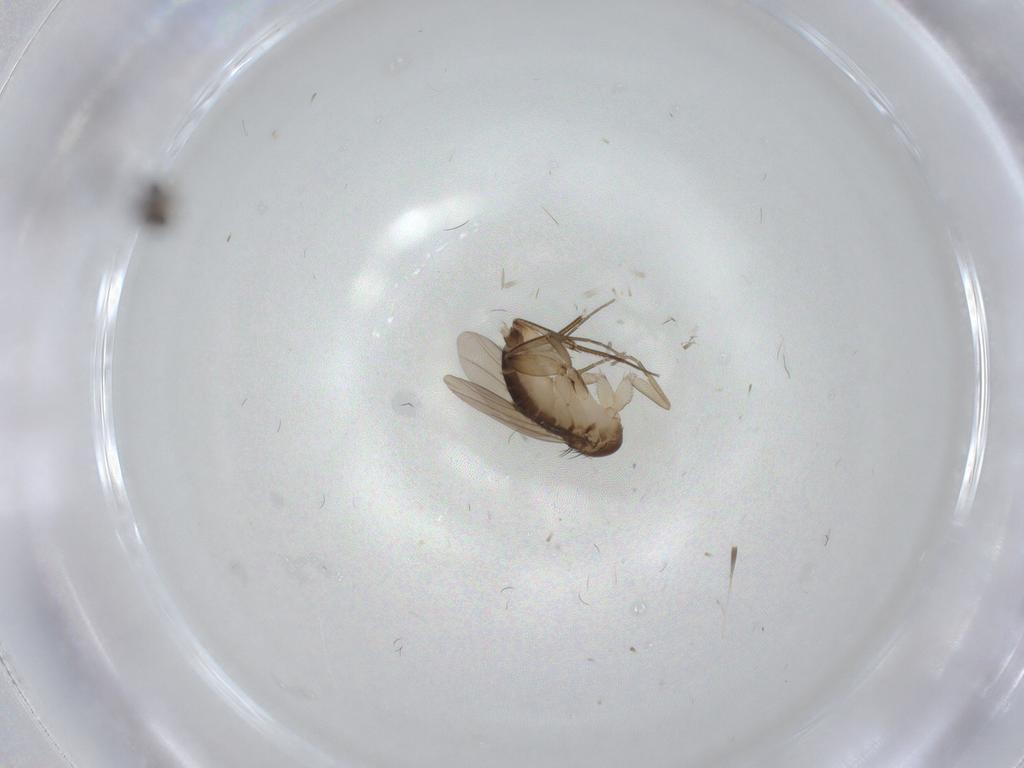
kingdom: Animalia
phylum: Arthropoda
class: Insecta
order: Diptera
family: Phoridae
